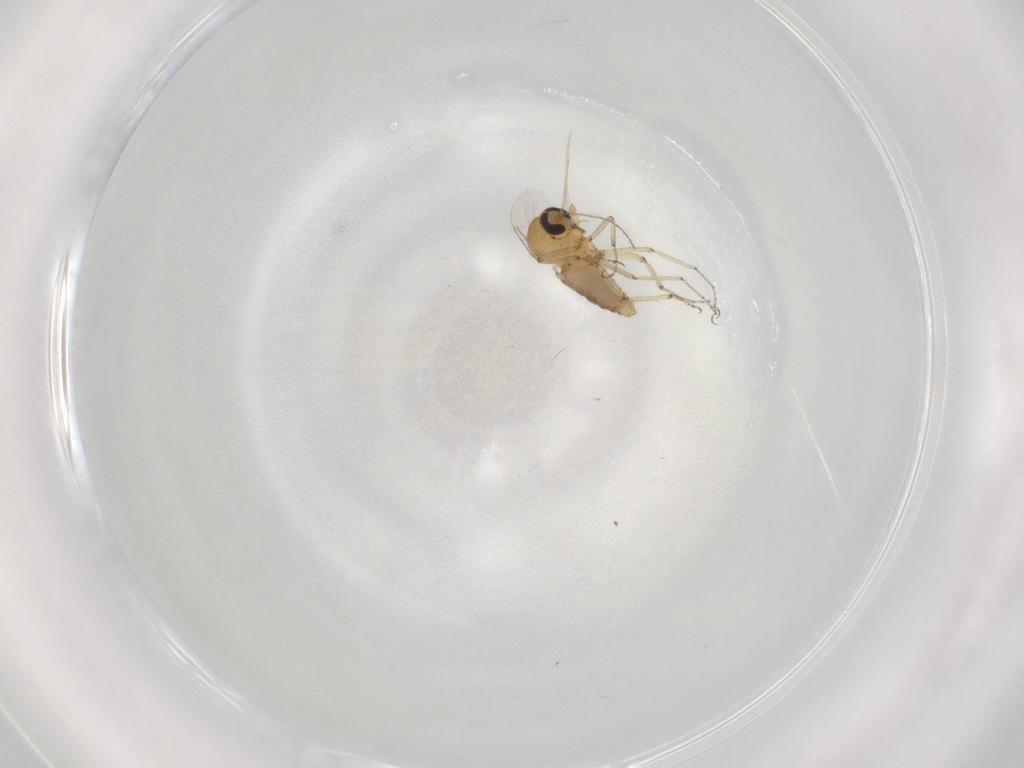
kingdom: Animalia
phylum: Arthropoda
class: Insecta
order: Diptera
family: Ceratopogonidae
